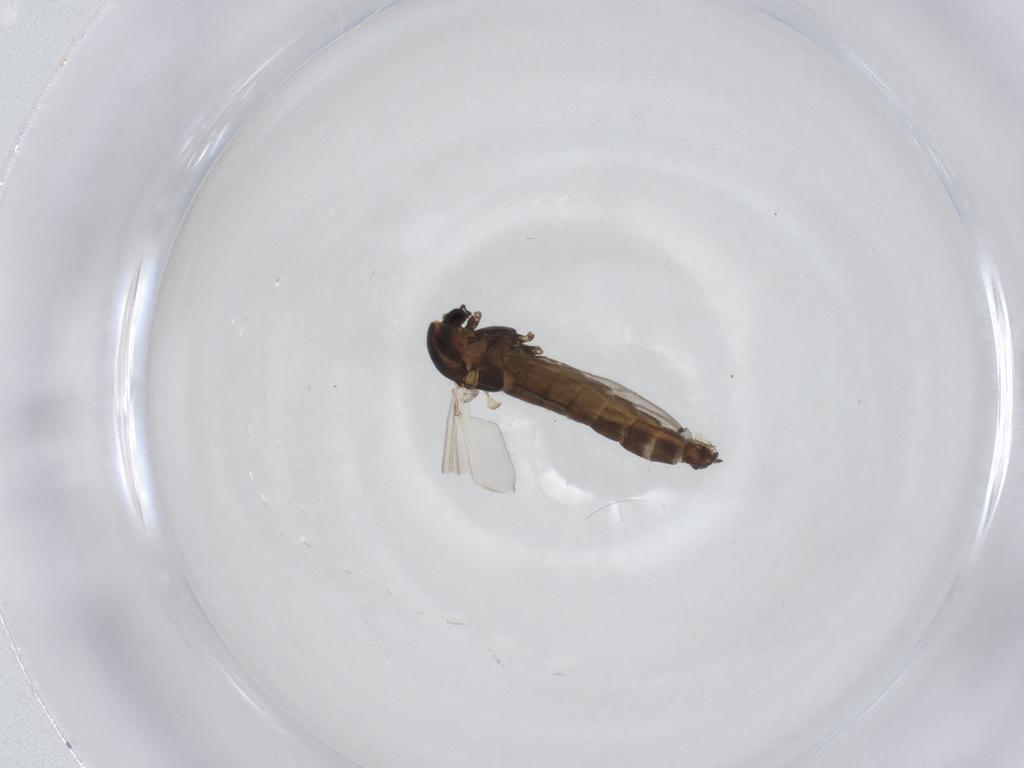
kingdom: Animalia
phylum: Arthropoda
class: Insecta
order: Diptera
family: Chironomidae
